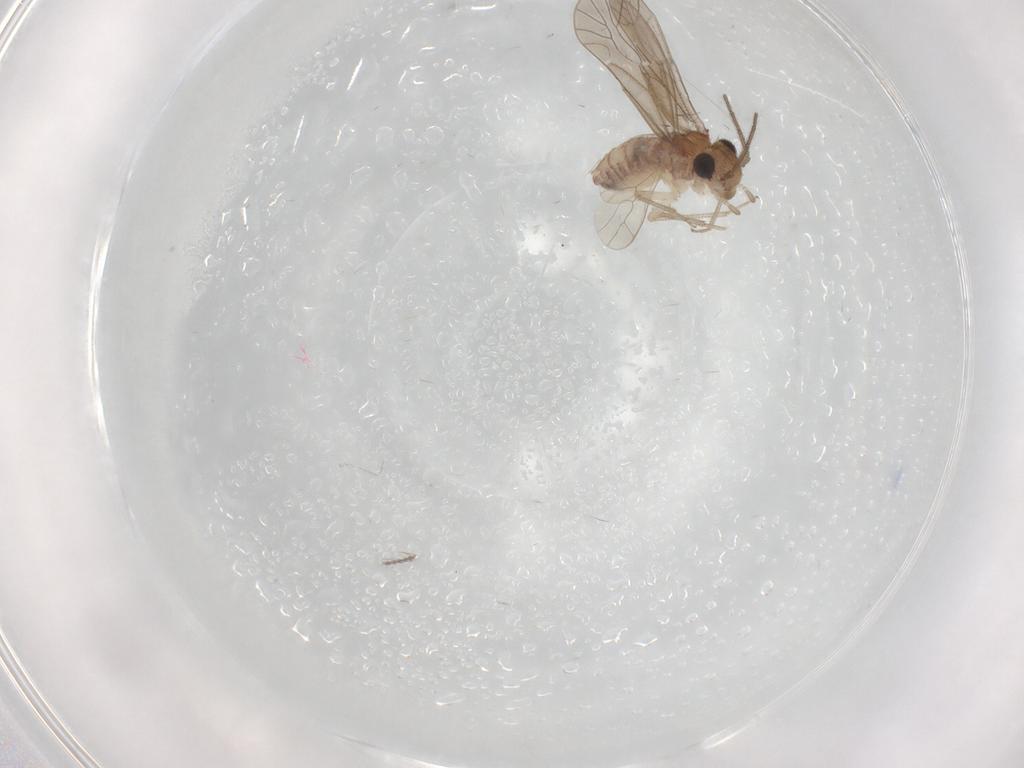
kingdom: Animalia
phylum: Arthropoda
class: Insecta
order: Psocodea
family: Caeciliusidae
